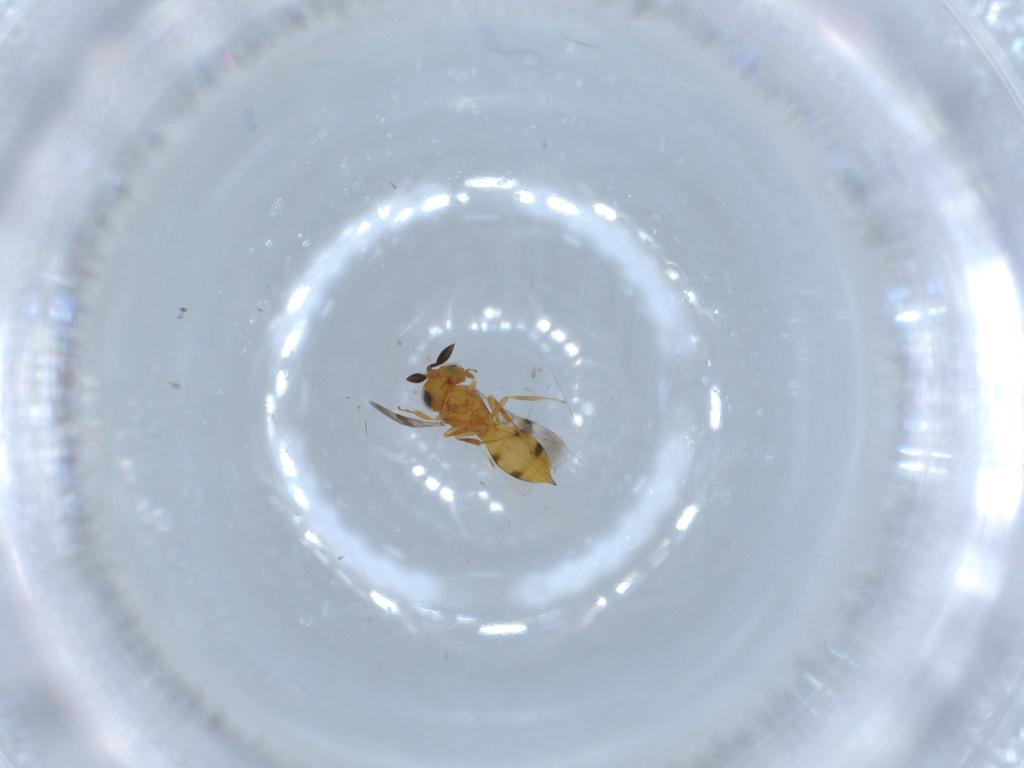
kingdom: Animalia
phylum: Arthropoda
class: Insecta
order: Hymenoptera
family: Scelionidae
